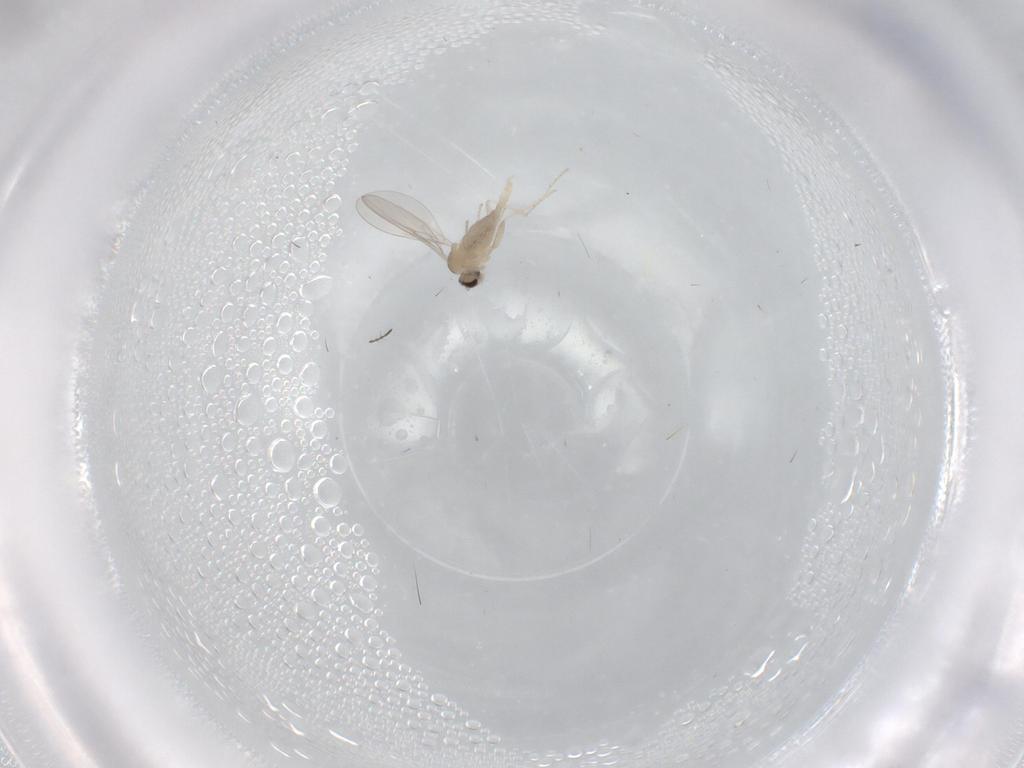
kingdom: Animalia
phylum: Arthropoda
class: Insecta
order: Diptera
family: Cecidomyiidae
